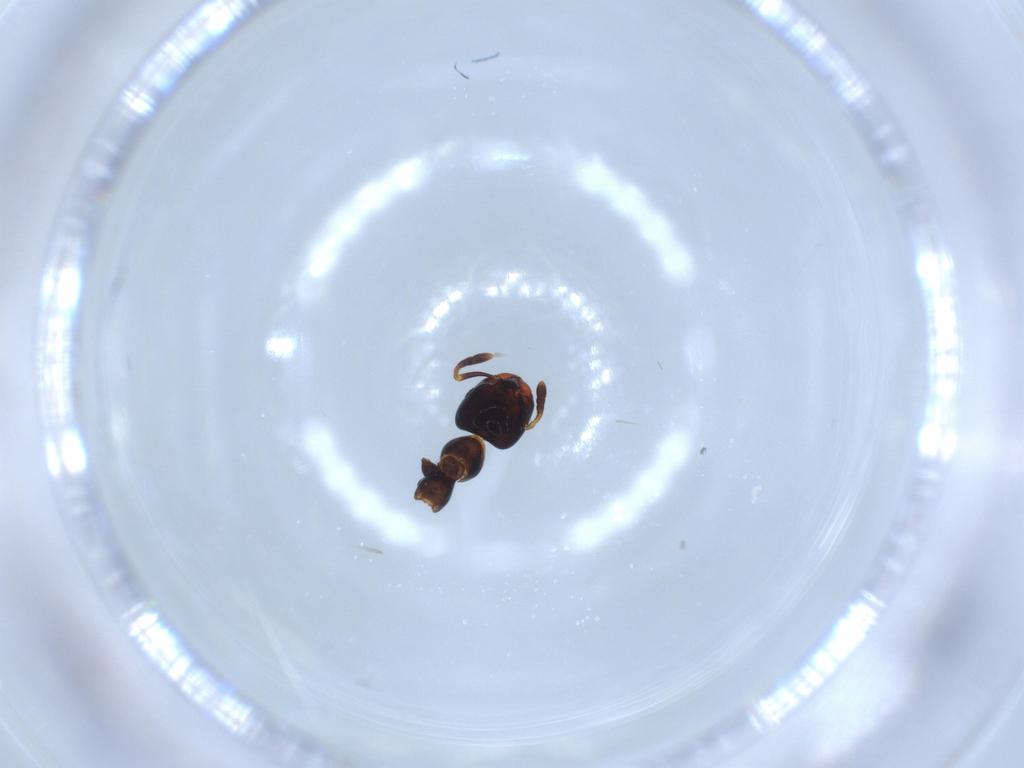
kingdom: Animalia
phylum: Arthropoda
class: Insecta
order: Hymenoptera
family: Formicidae
